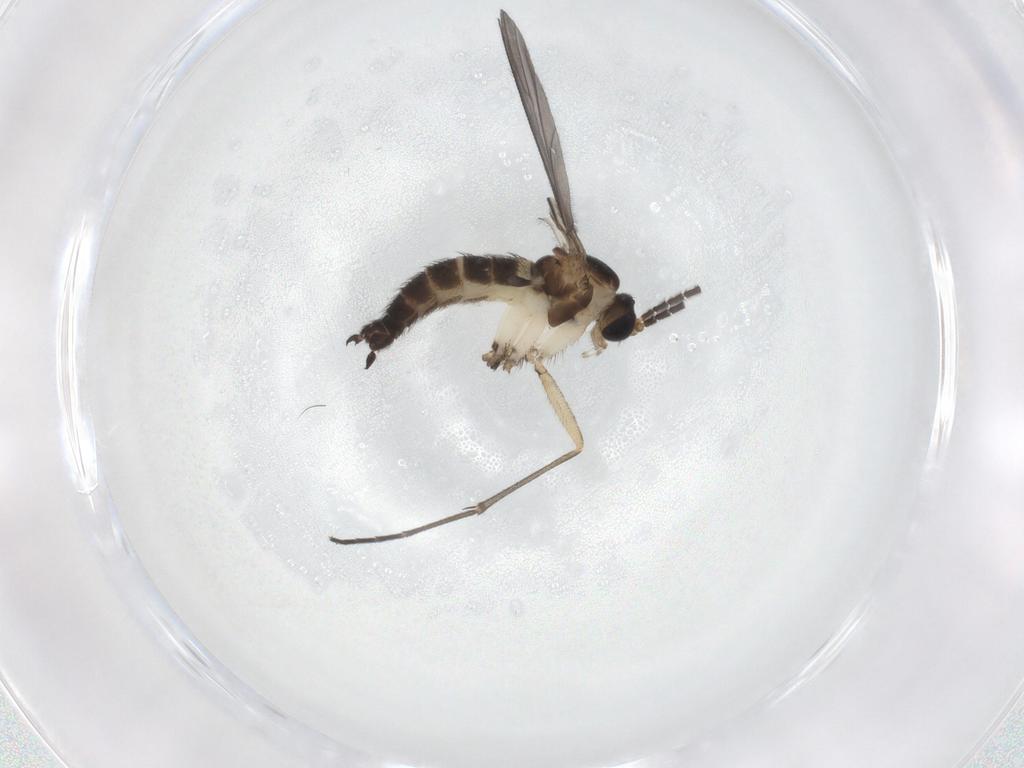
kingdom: Animalia
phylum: Arthropoda
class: Insecta
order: Diptera
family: Sciaridae
